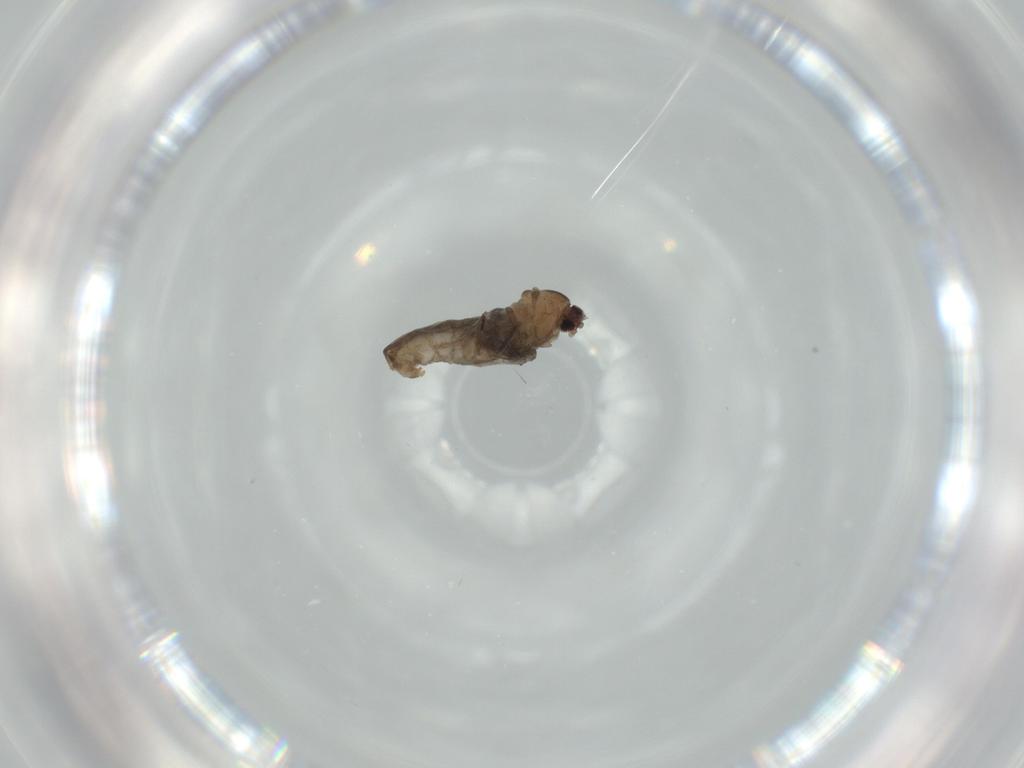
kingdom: Animalia
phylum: Arthropoda
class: Insecta
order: Diptera
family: Cecidomyiidae
